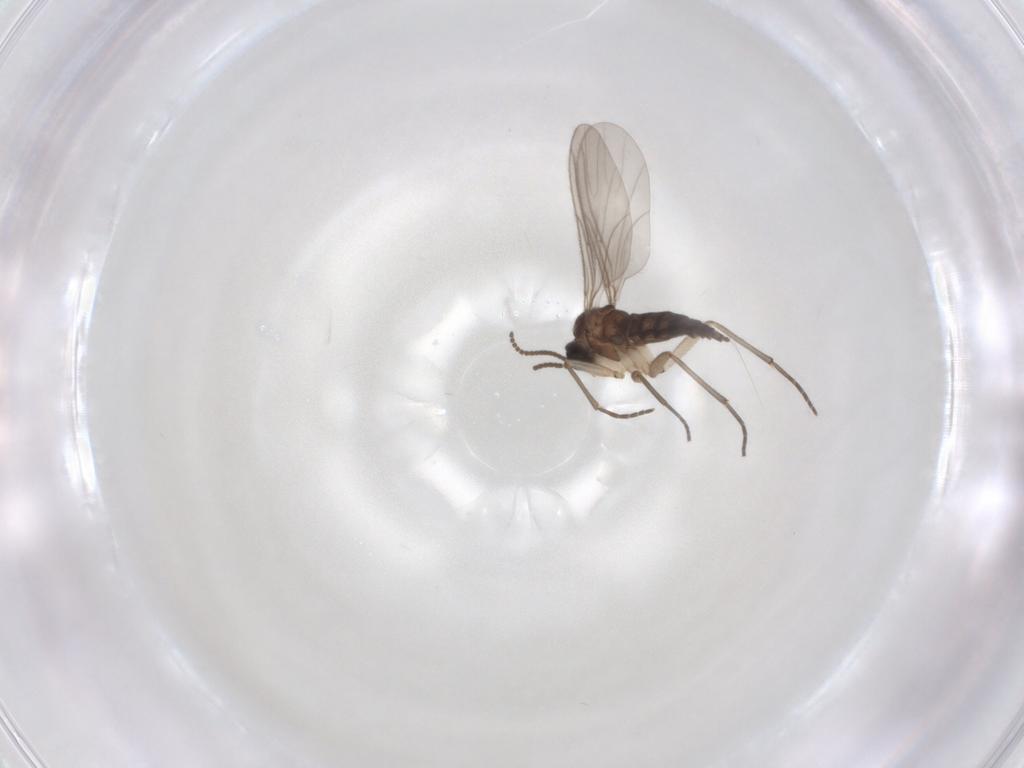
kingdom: Animalia
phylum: Arthropoda
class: Insecta
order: Diptera
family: Sciaridae
